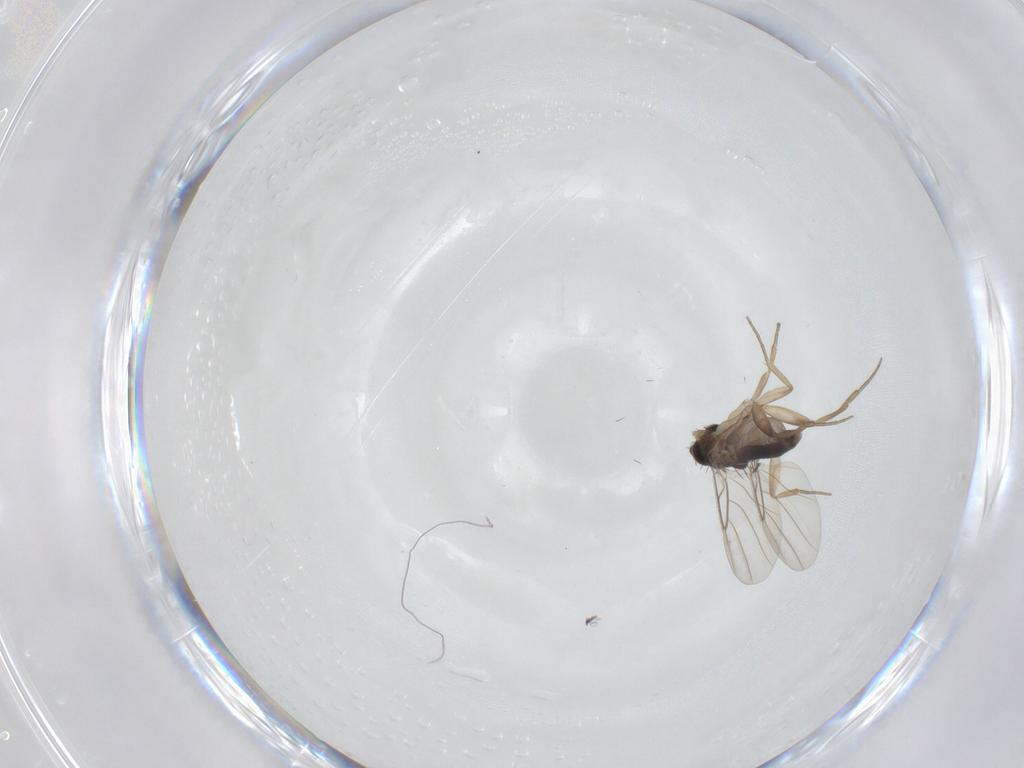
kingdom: Animalia
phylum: Arthropoda
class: Insecta
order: Diptera
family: Phoridae
